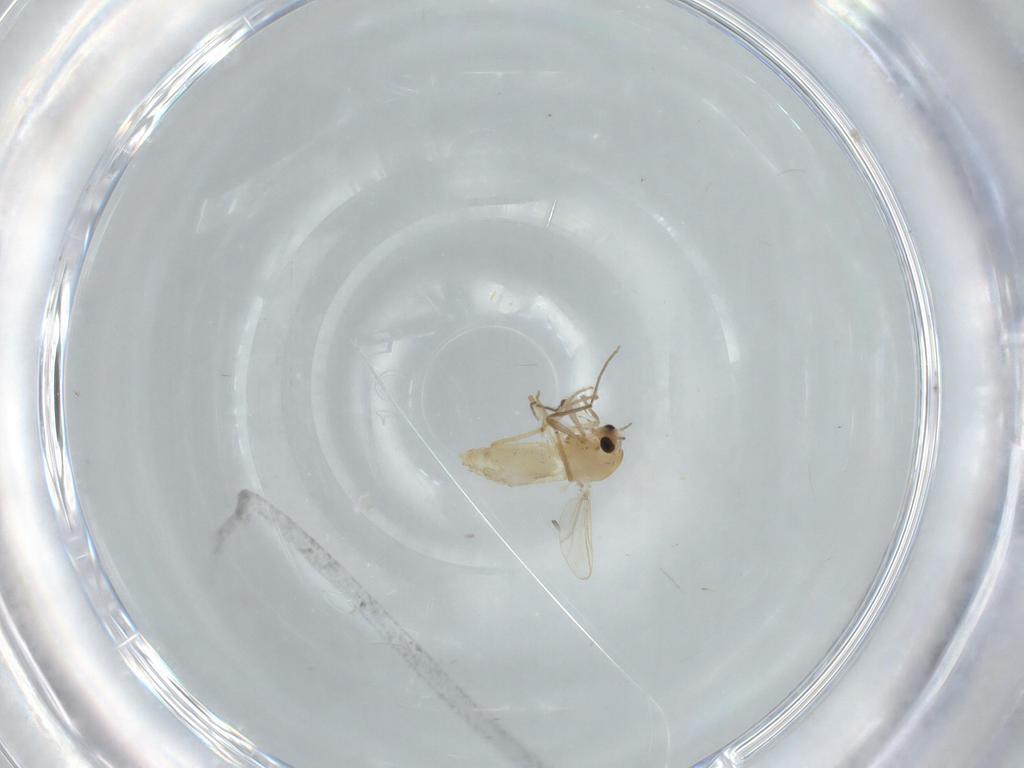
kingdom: Animalia
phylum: Arthropoda
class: Insecta
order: Diptera
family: Chironomidae
